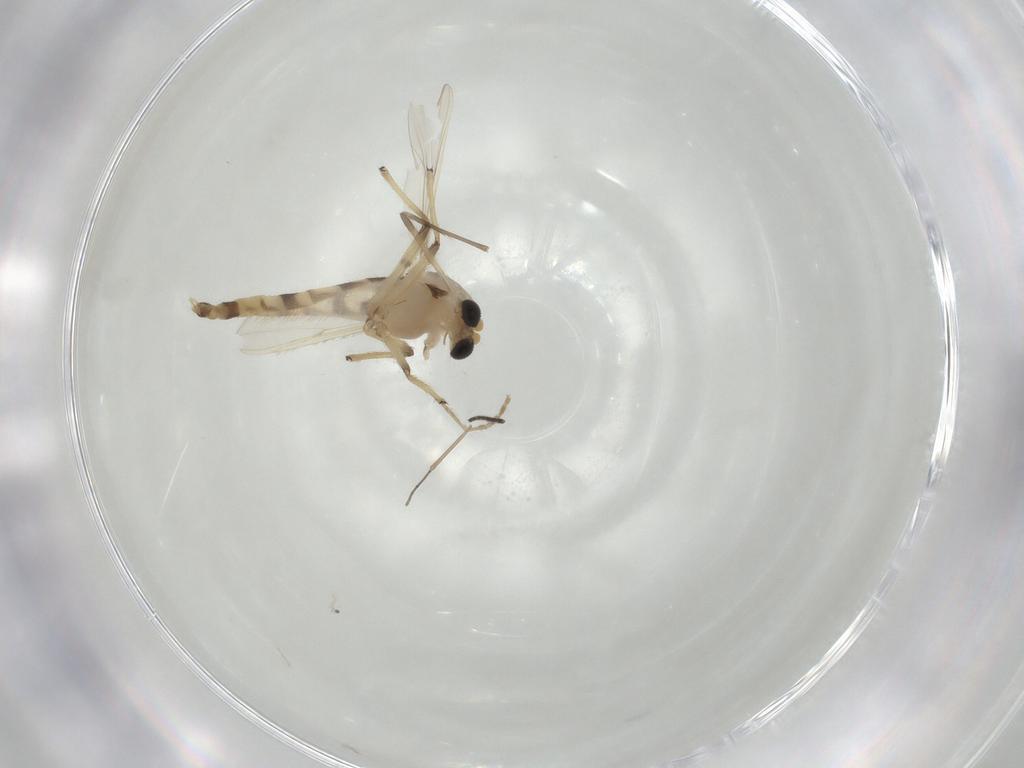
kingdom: Animalia
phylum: Arthropoda
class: Insecta
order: Diptera
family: Chironomidae
